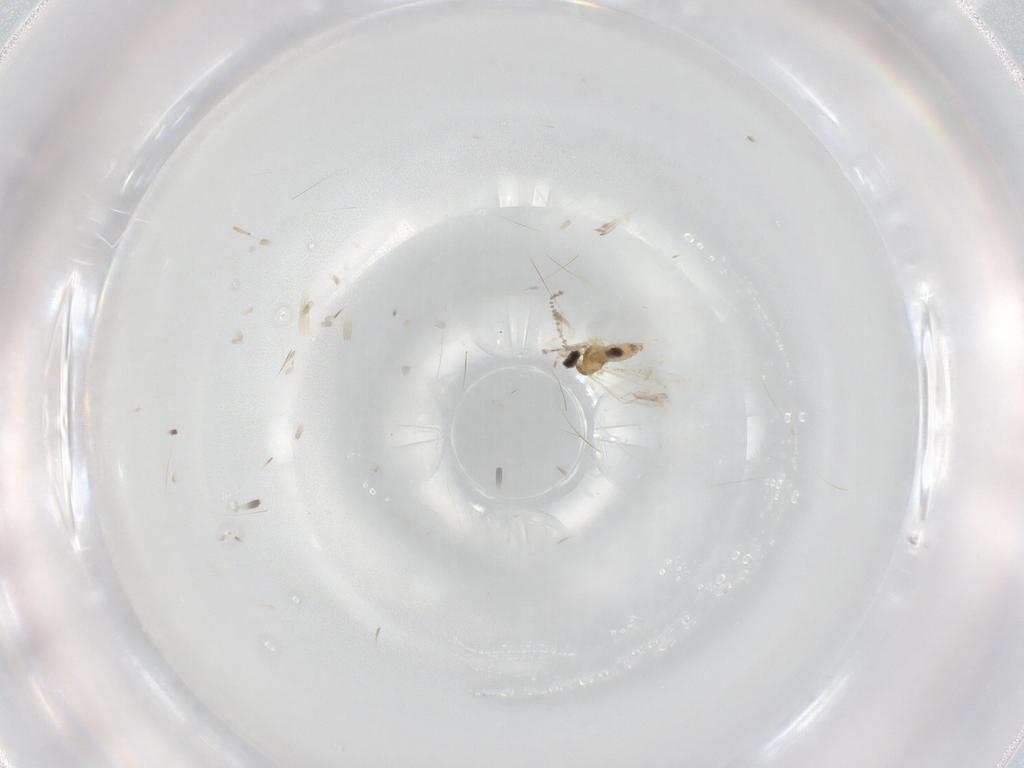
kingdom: Animalia
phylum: Arthropoda
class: Insecta
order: Diptera
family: Cecidomyiidae
